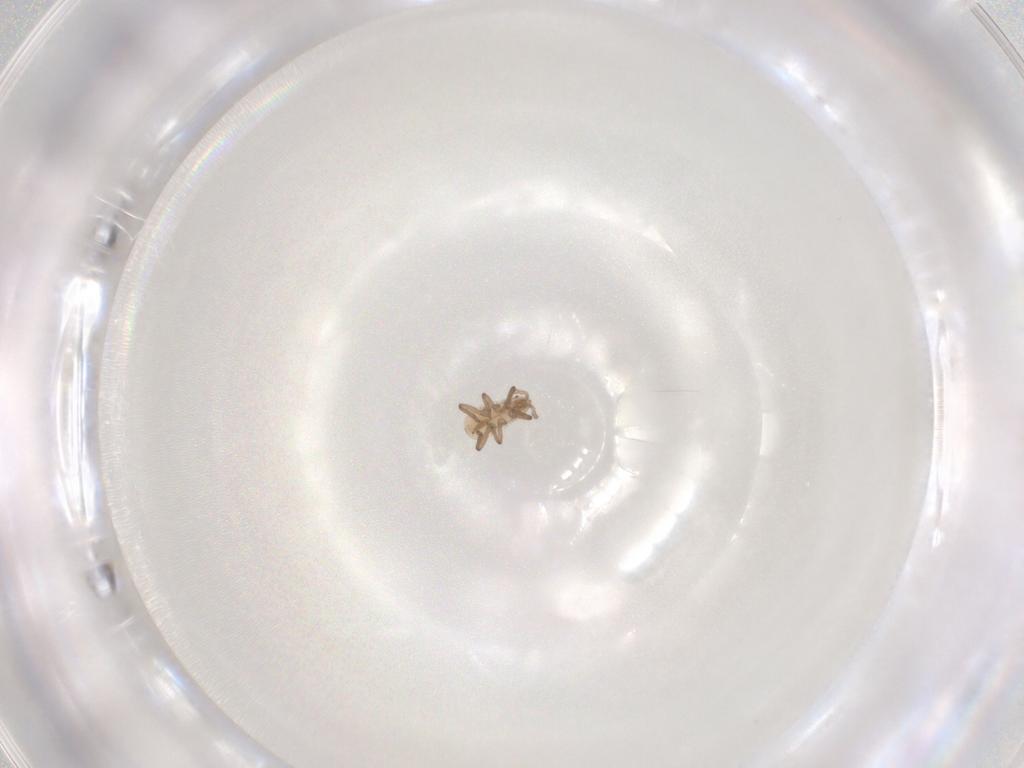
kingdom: Animalia
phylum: Arthropoda
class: Insecta
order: Hemiptera
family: Aphididae
